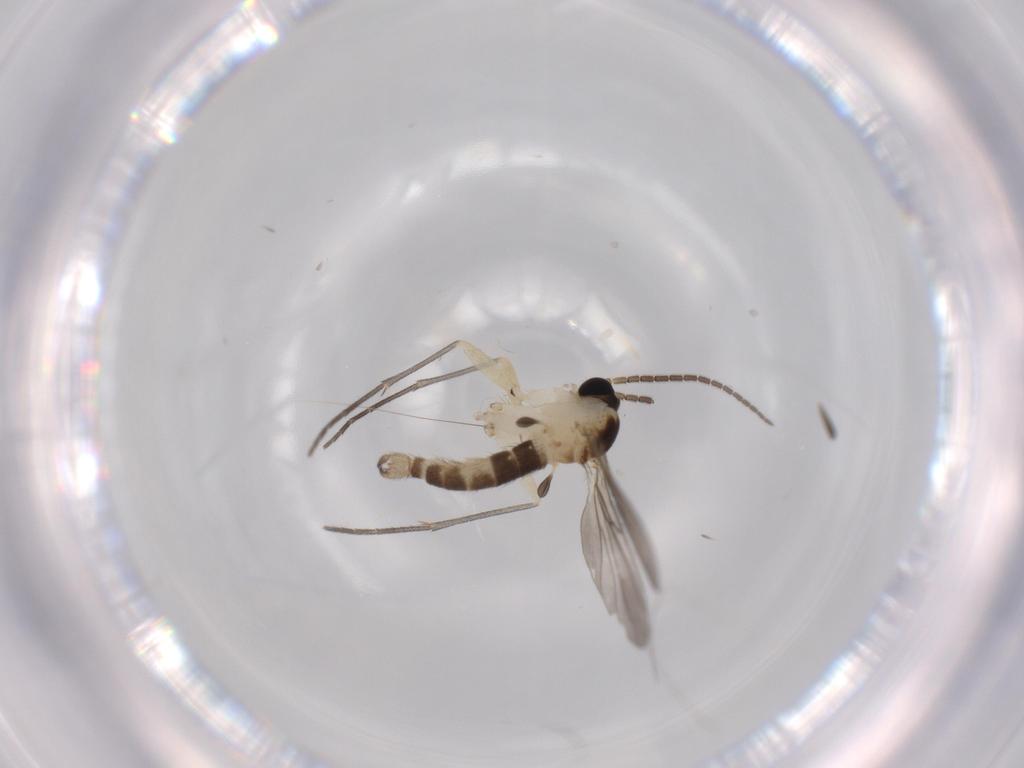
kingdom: Animalia
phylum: Arthropoda
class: Insecta
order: Diptera
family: Sciaridae
